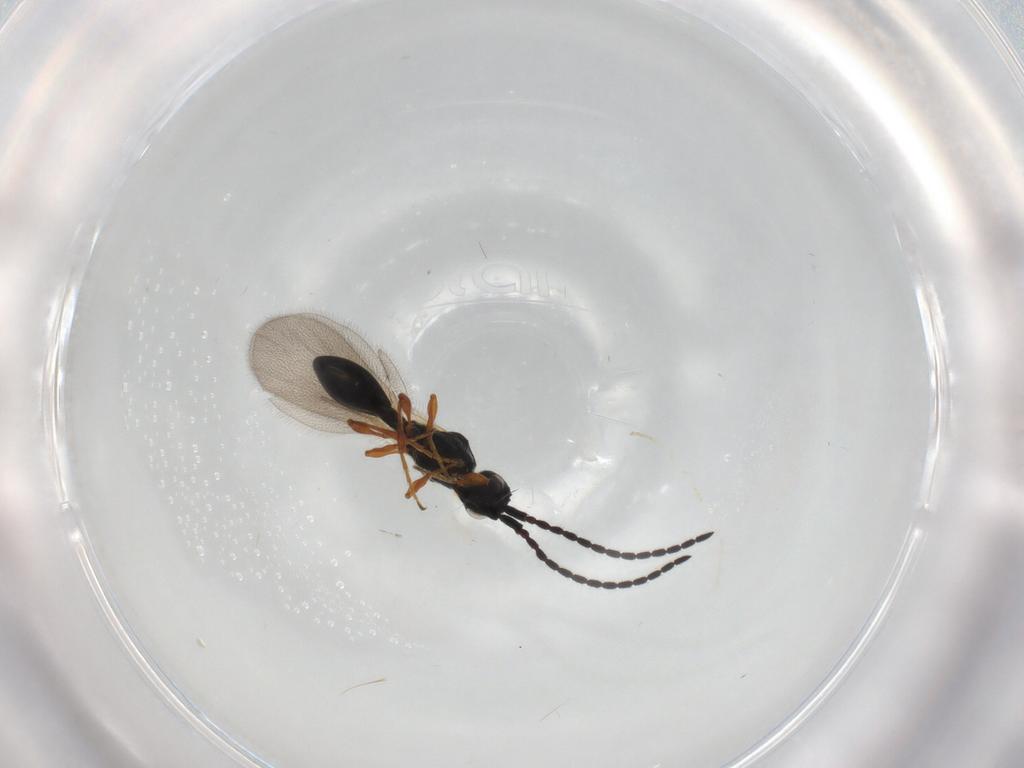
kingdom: Animalia
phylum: Arthropoda
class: Insecta
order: Hymenoptera
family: Diapriidae
